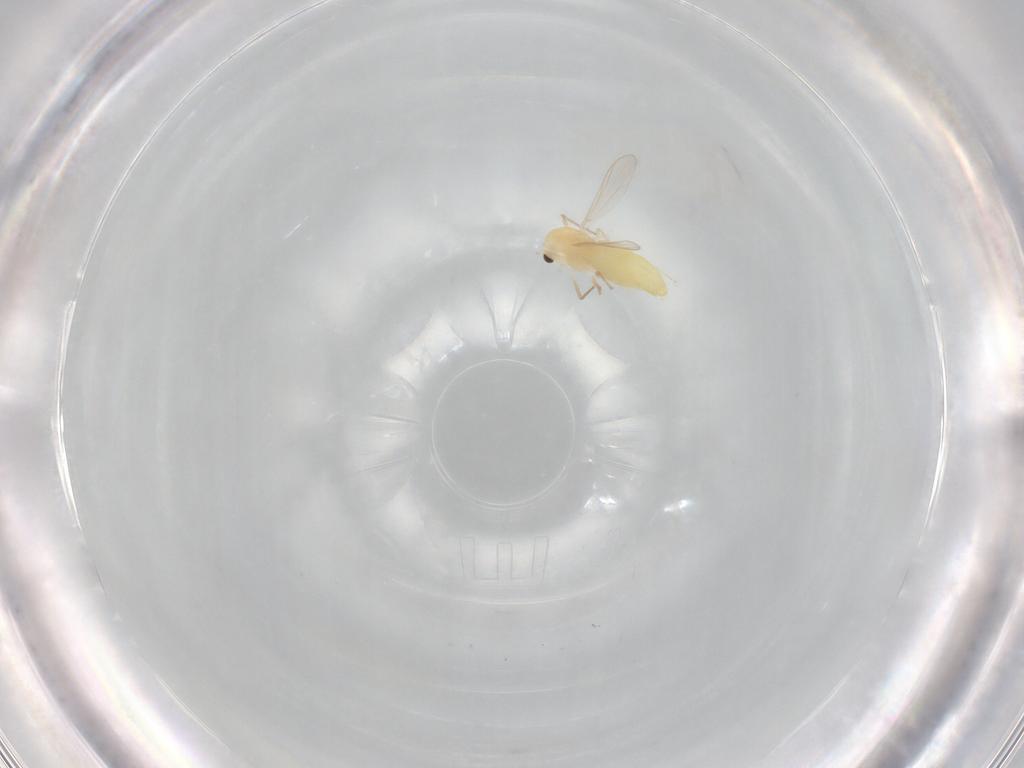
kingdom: Animalia
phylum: Arthropoda
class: Insecta
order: Diptera
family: Chironomidae
